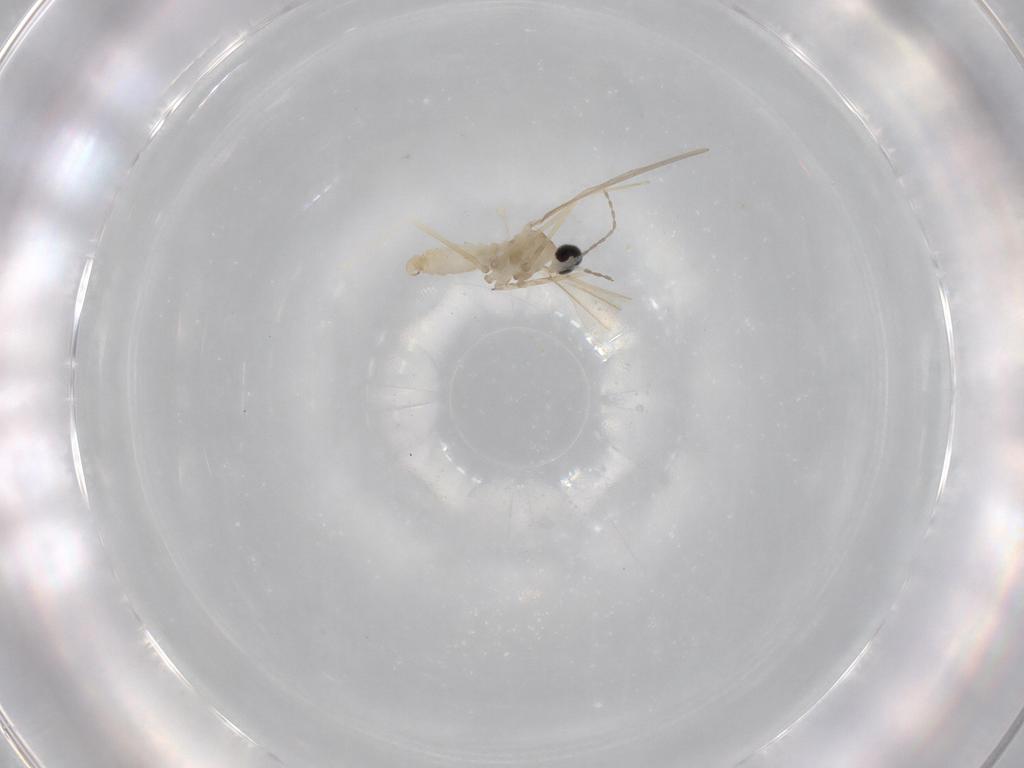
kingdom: Animalia
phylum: Arthropoda
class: Insecta
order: Diptera
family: Cecidomyiidae
